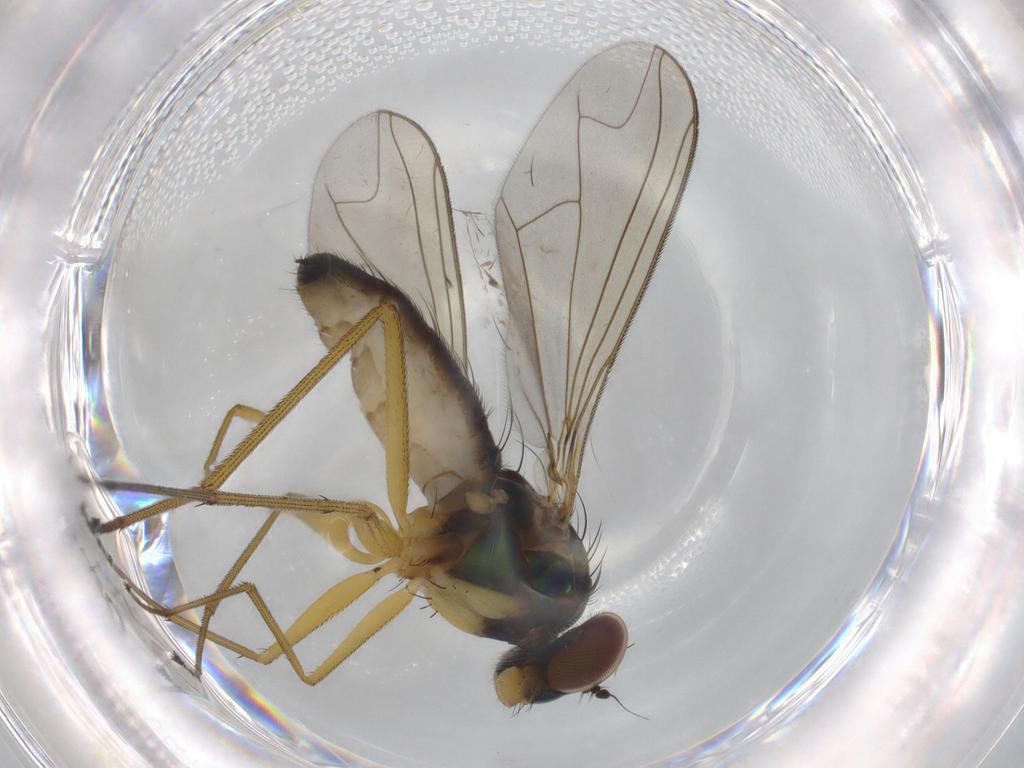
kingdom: Animalia
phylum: Arthropoda
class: Insecta
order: Diptera
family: Dolichopodidae
